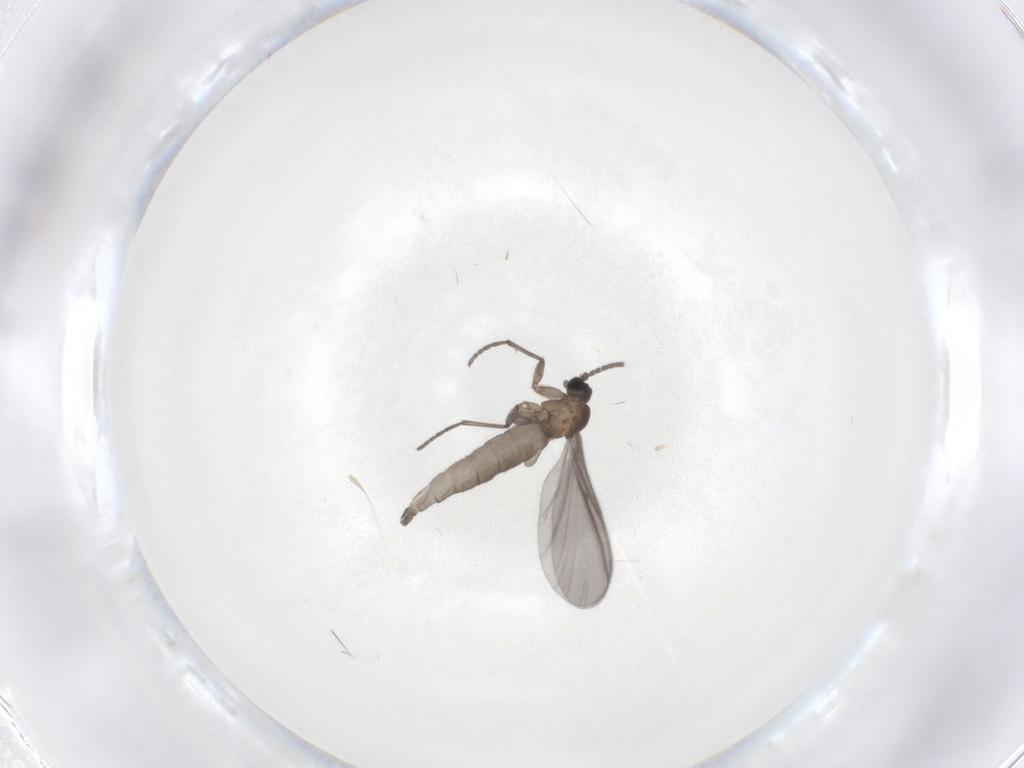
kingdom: Animalia
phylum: Arthropoda
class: Insecta
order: Diptera
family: Sciaridae
